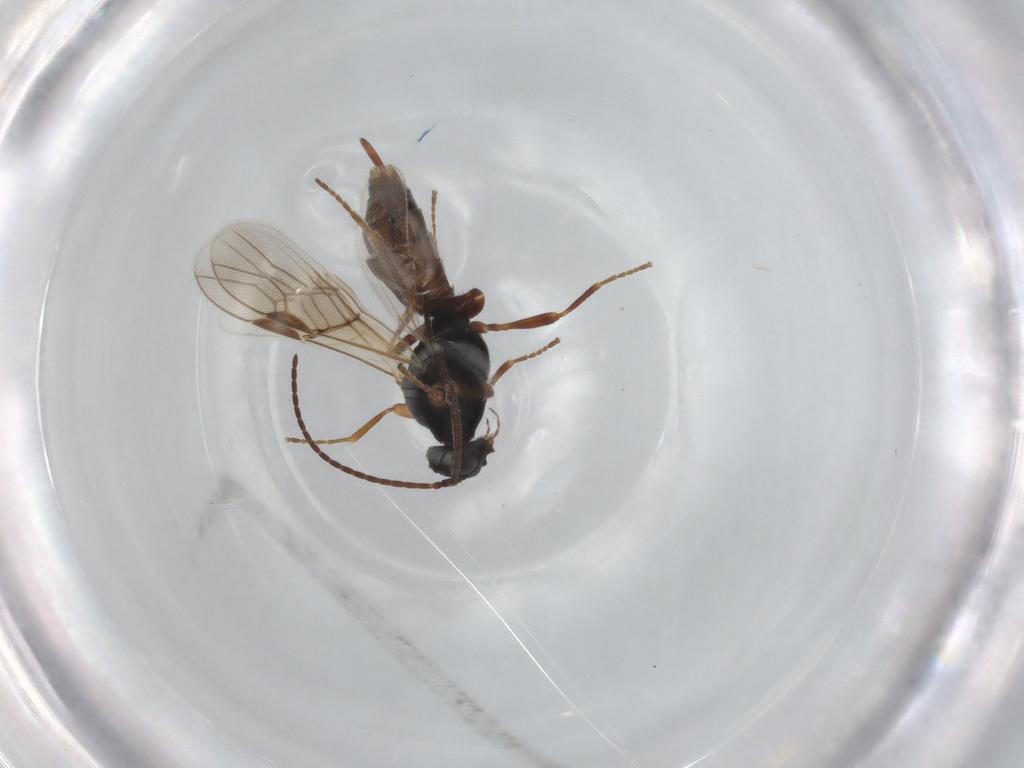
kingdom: Animalia
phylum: Arthropoda
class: Insecta
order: Hymenoptera
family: Braconidae
